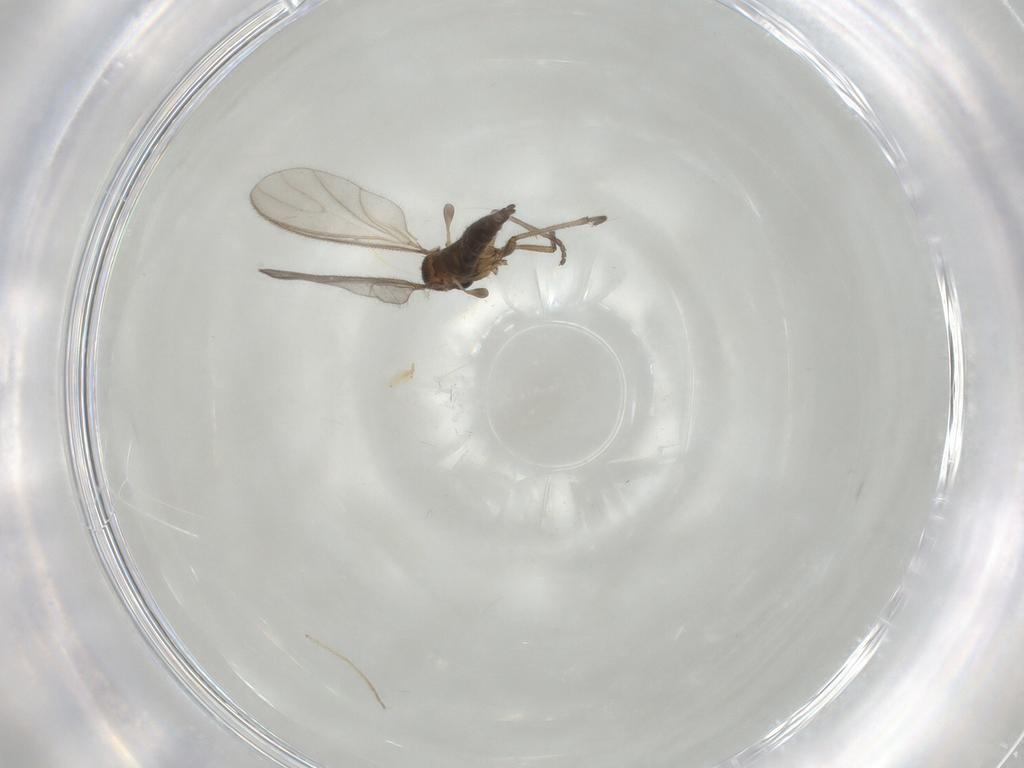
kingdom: Animalia
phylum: Arthropoda
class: Insecta
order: Diptera
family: Sciaridae
